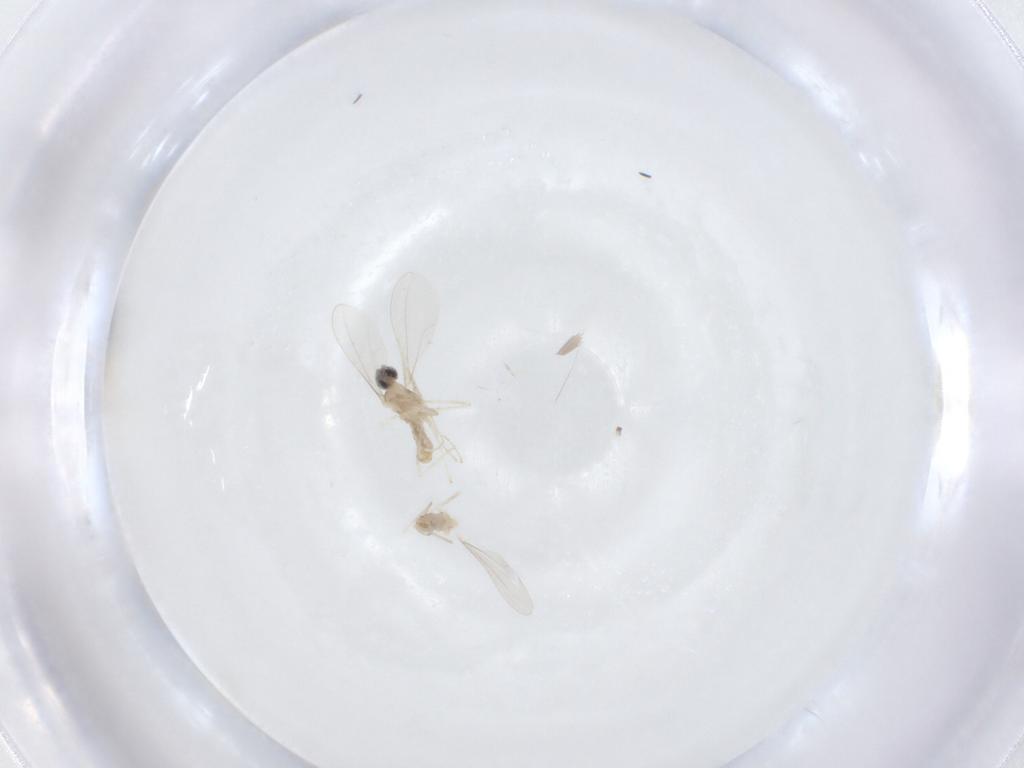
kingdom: Animalia
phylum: Arthropoda
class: Insecta
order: Diptera
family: Cecidomyiidae
